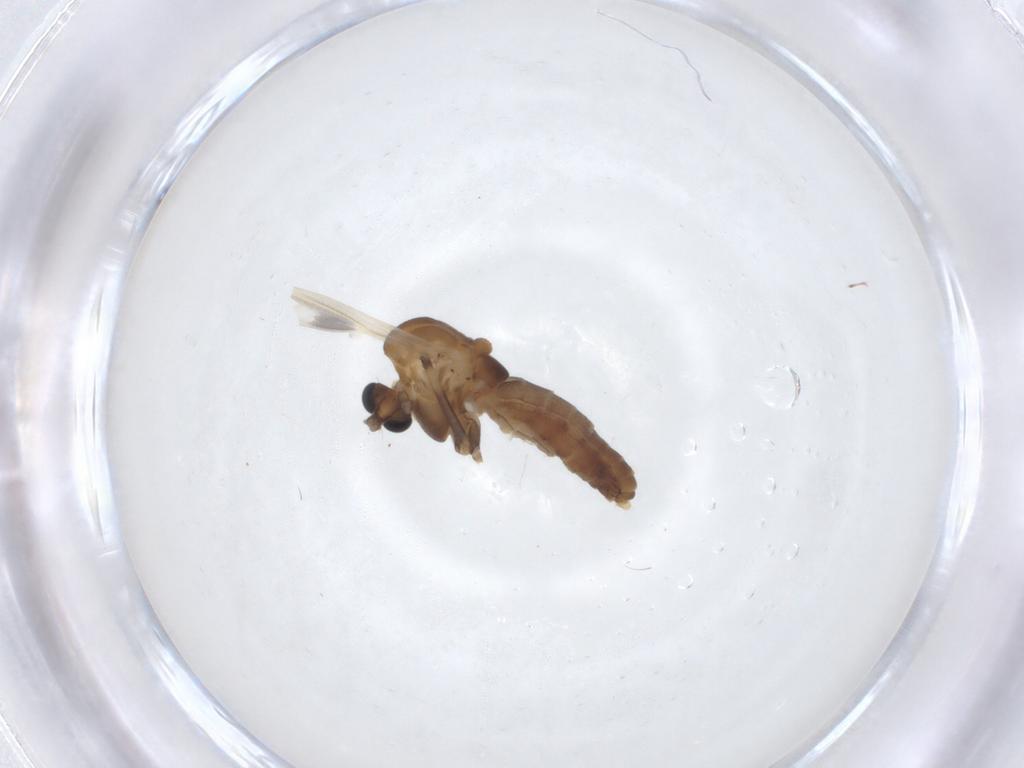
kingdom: Animalia
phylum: Arthropoda
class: Insecta
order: Diptera
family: Chironomidae
